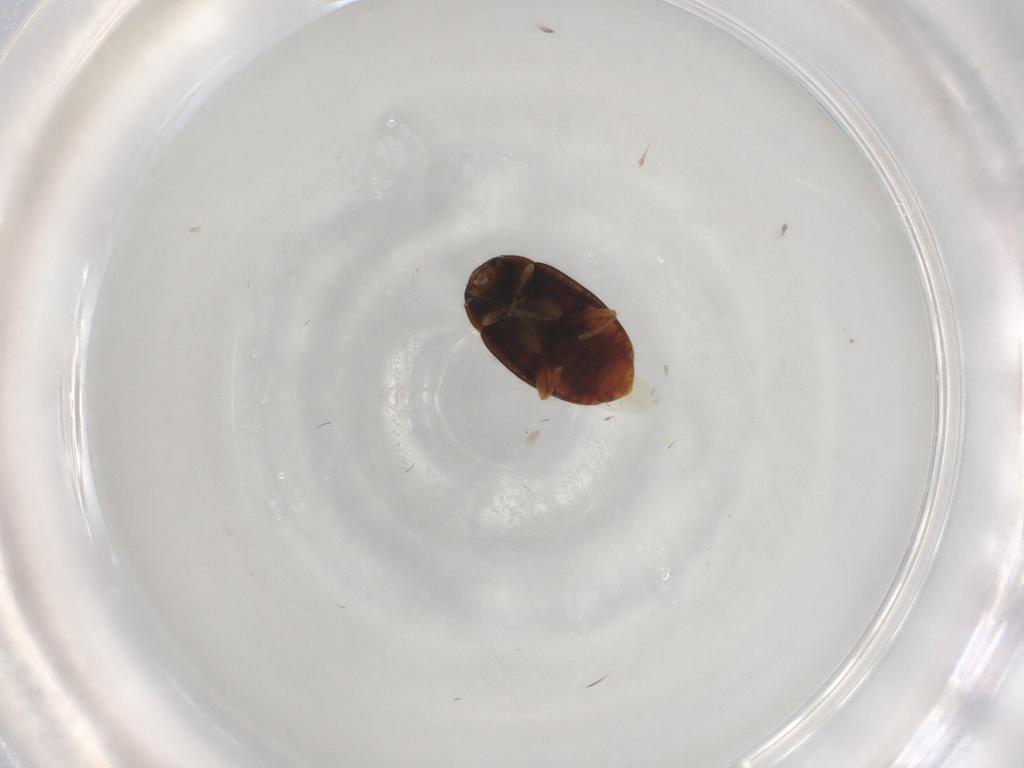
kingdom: Animalia
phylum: Arthropoda
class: Insecta
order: Coleoptera
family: Coccinellidae
